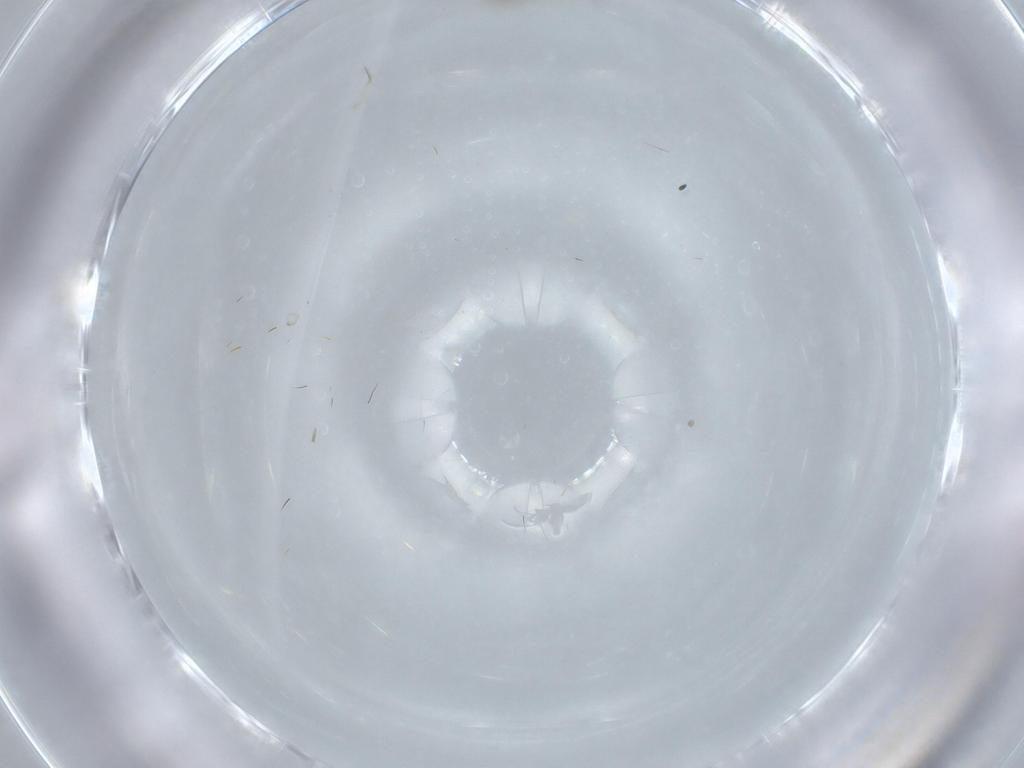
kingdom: Animalia
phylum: Arthropoda
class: Insecta
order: Diptera
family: Sciaridae
